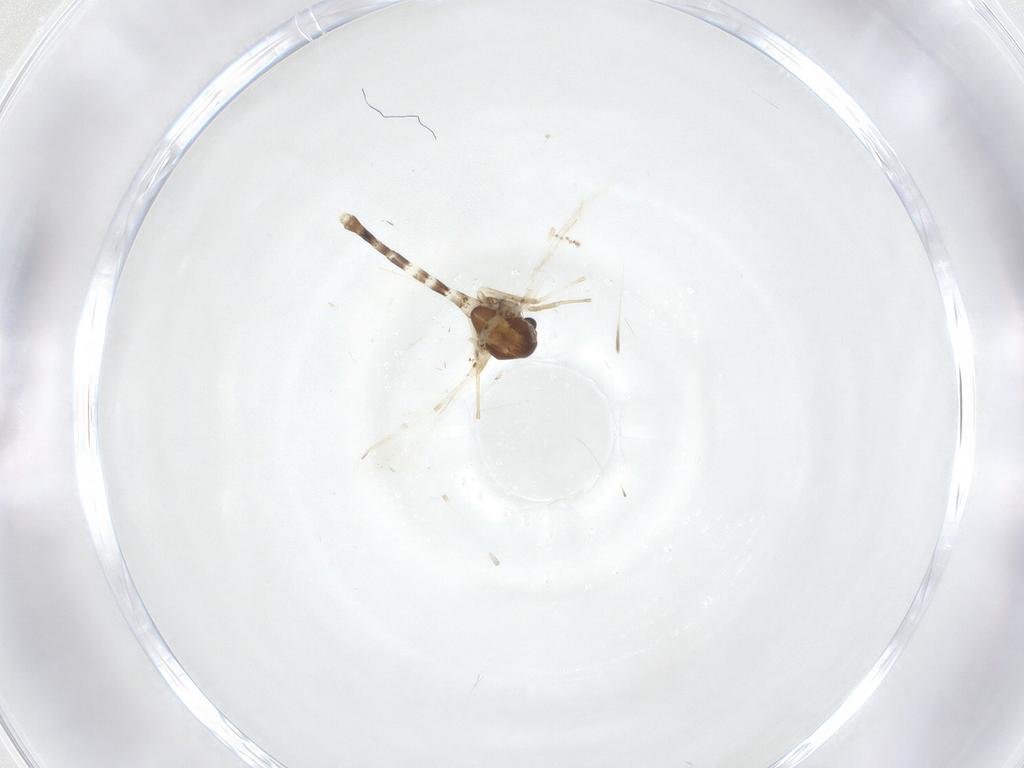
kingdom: Animalia
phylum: Arthropoda
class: Insecta
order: Diptera
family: Chironomidae
